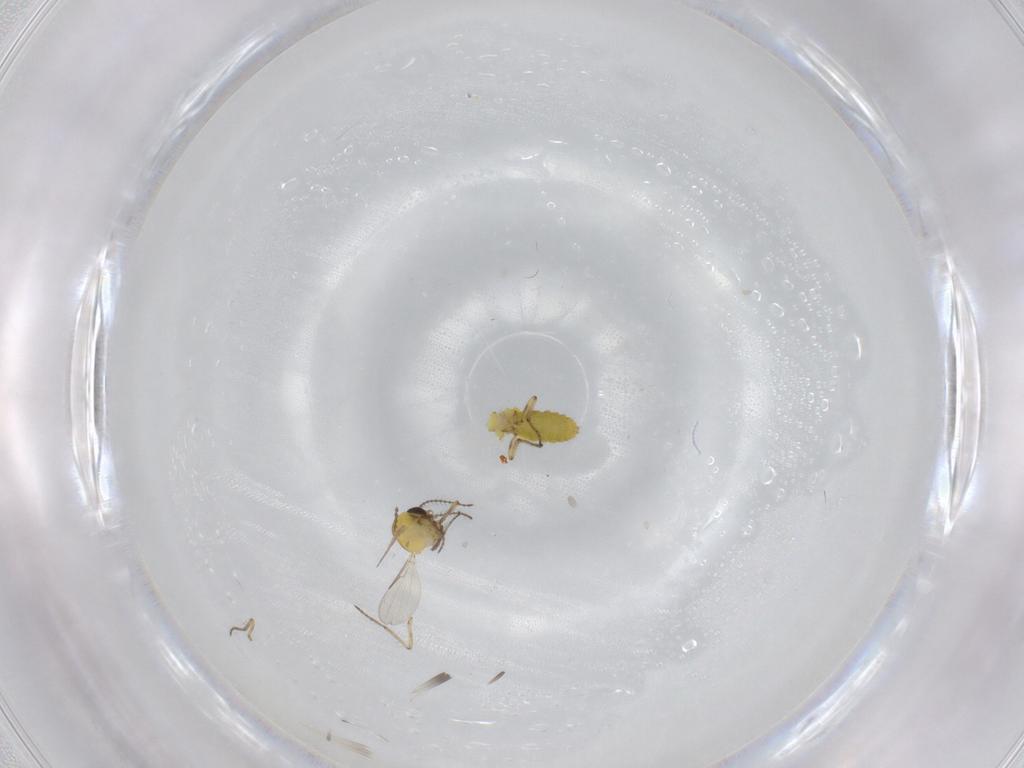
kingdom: Animalia
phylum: Arthropoda
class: Insecta
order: Diptera
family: Sciaridae
